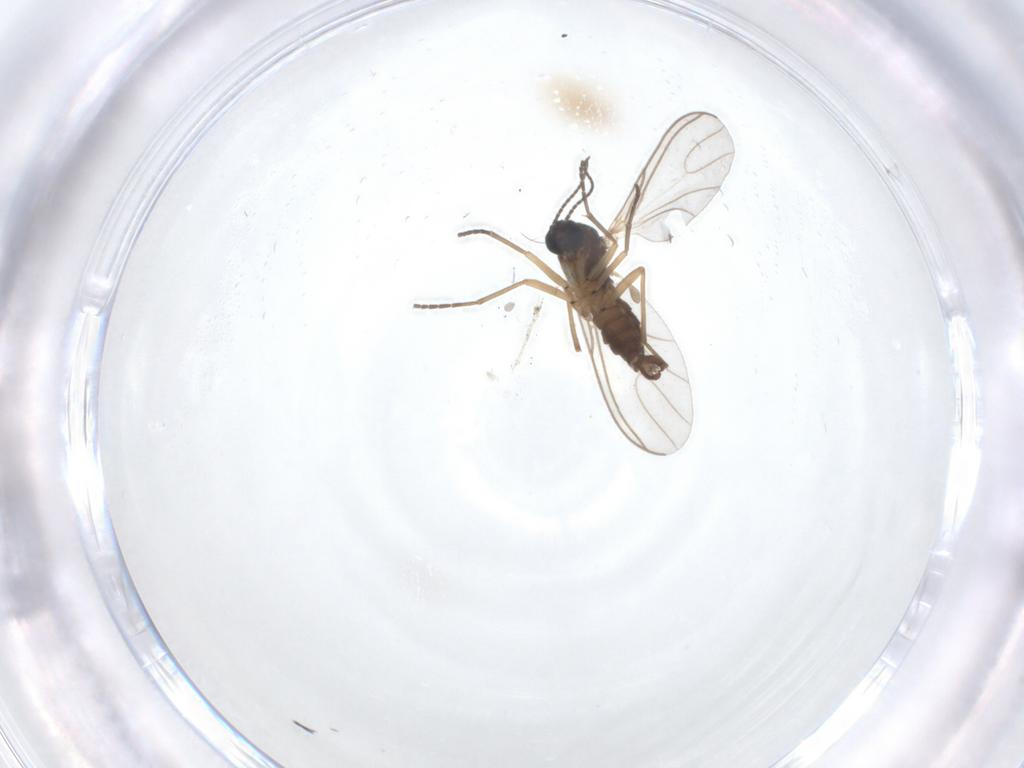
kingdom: Animalia
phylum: Arthropoda
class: Insecta
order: Diptera
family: Sciaridae
